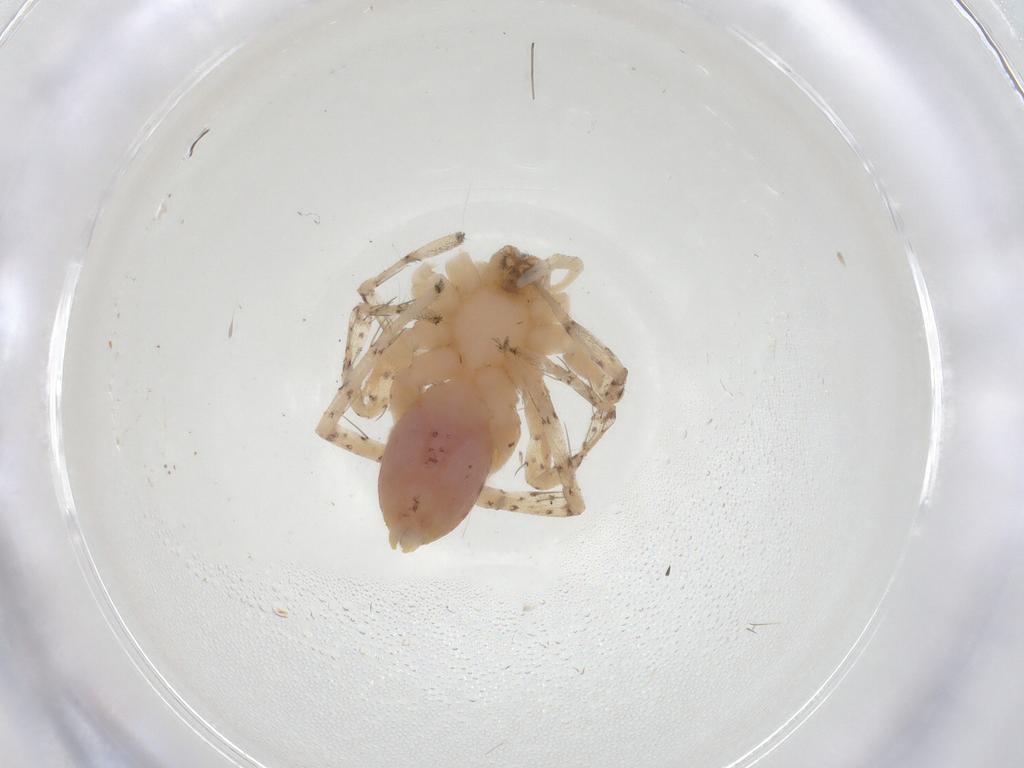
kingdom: Animalia
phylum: Arthropoda
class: Arachnida
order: Araneae
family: Anyphaenidae
